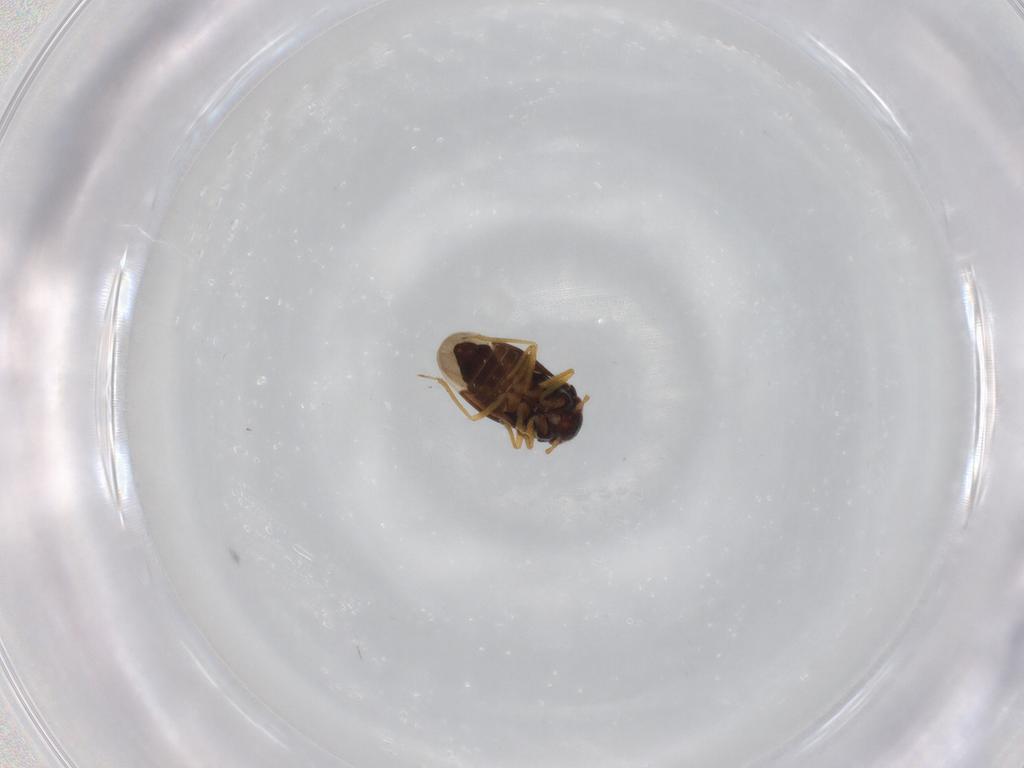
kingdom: Animalia
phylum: Arthropoda
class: Insecta
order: Hemiptera
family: Schizopteridae
